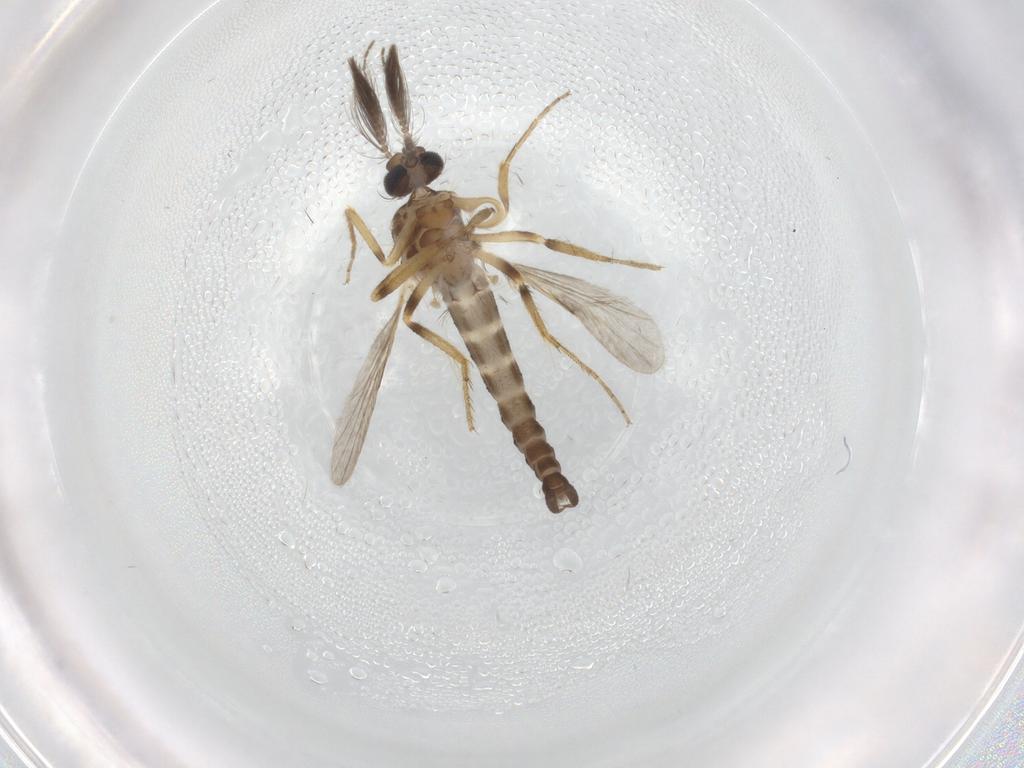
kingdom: Animalia
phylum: Arthropoda
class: Insecta
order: Diptera
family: Ceratopogonidae
